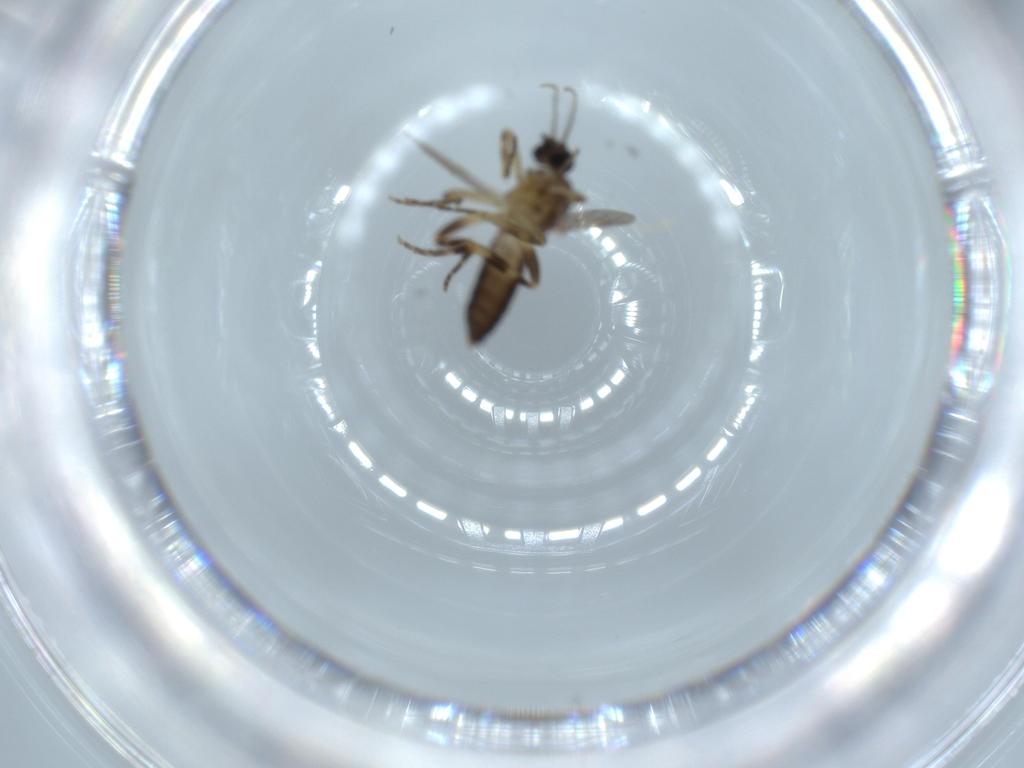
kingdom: Animalia
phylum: Arthropoda
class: Insecta
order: Diptera
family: Ceratopogonidae
